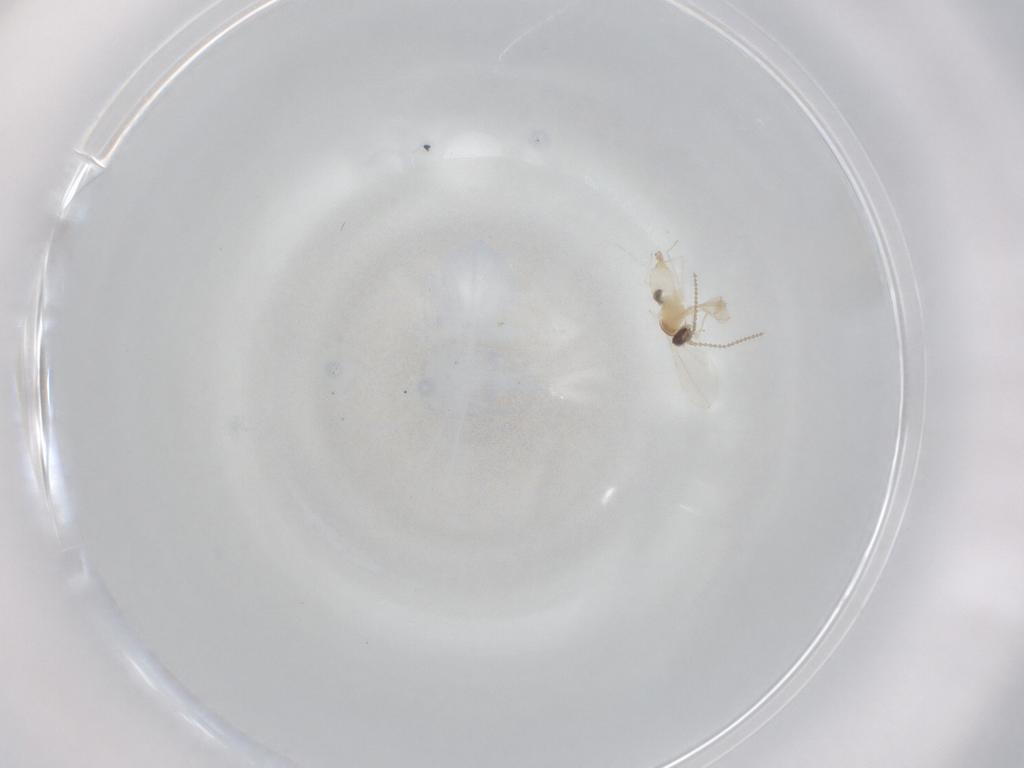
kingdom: Animalia
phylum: Arthropoda
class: Insecta
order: Diptera
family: Cecidomyiidae
